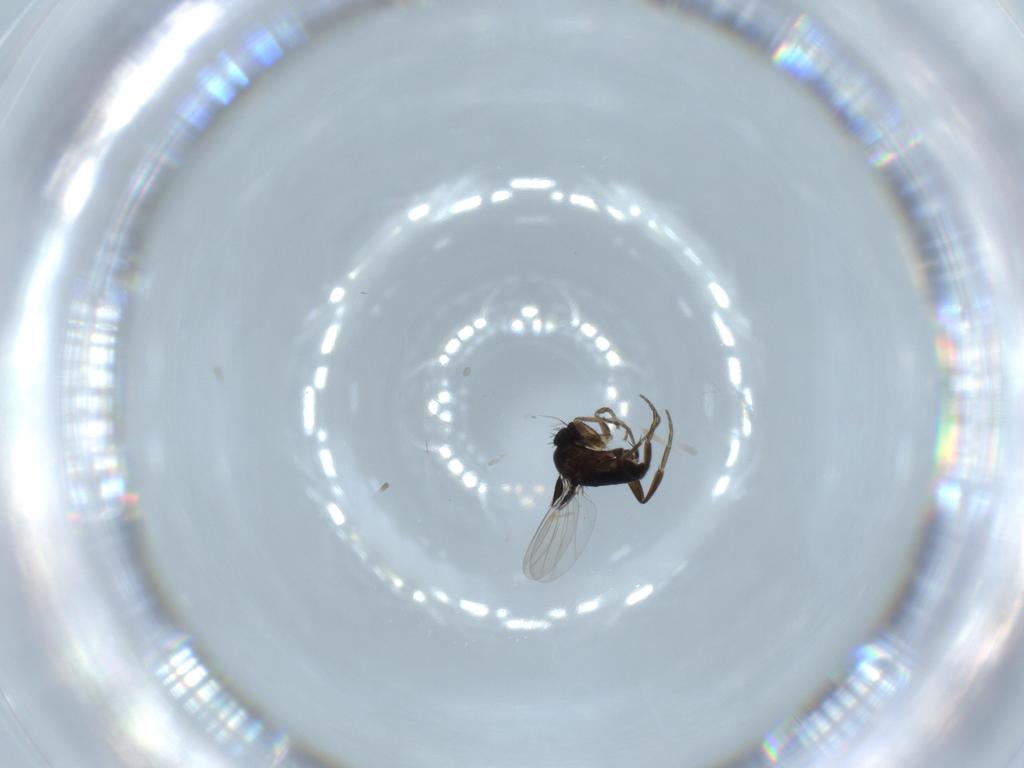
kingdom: Animalia
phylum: Arthropoda
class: Insecta
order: Diptera
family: Phoridae
